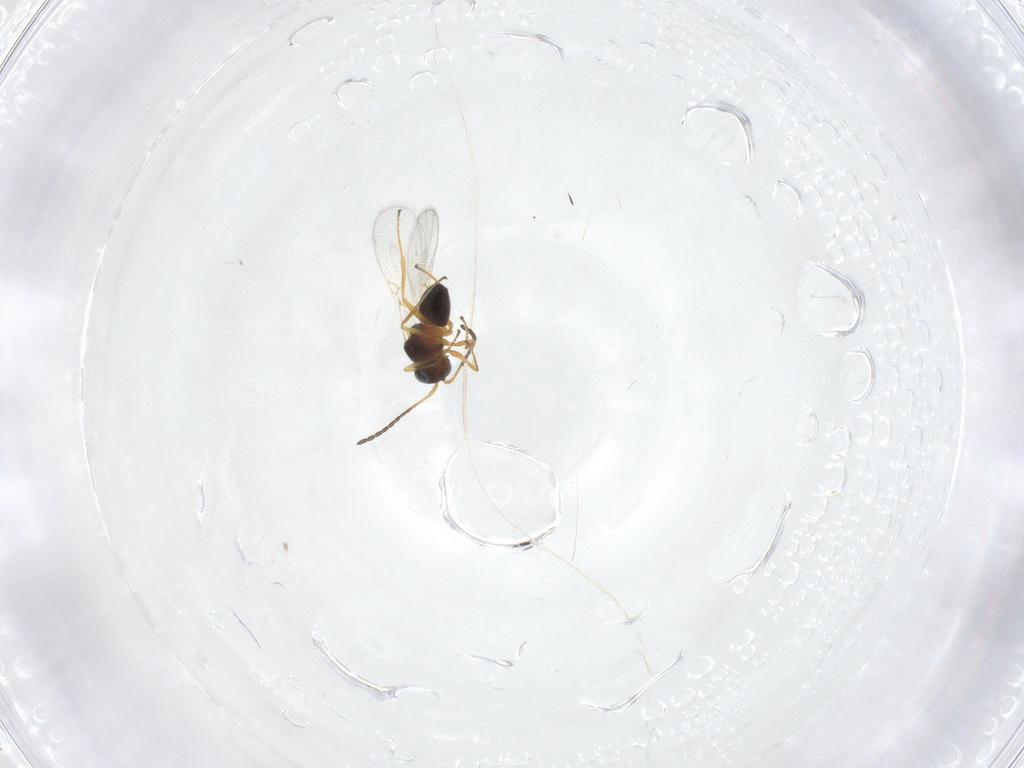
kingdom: Animalia
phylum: Arthropoda
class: Insecta
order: Hymenoptera
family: Figitidae
